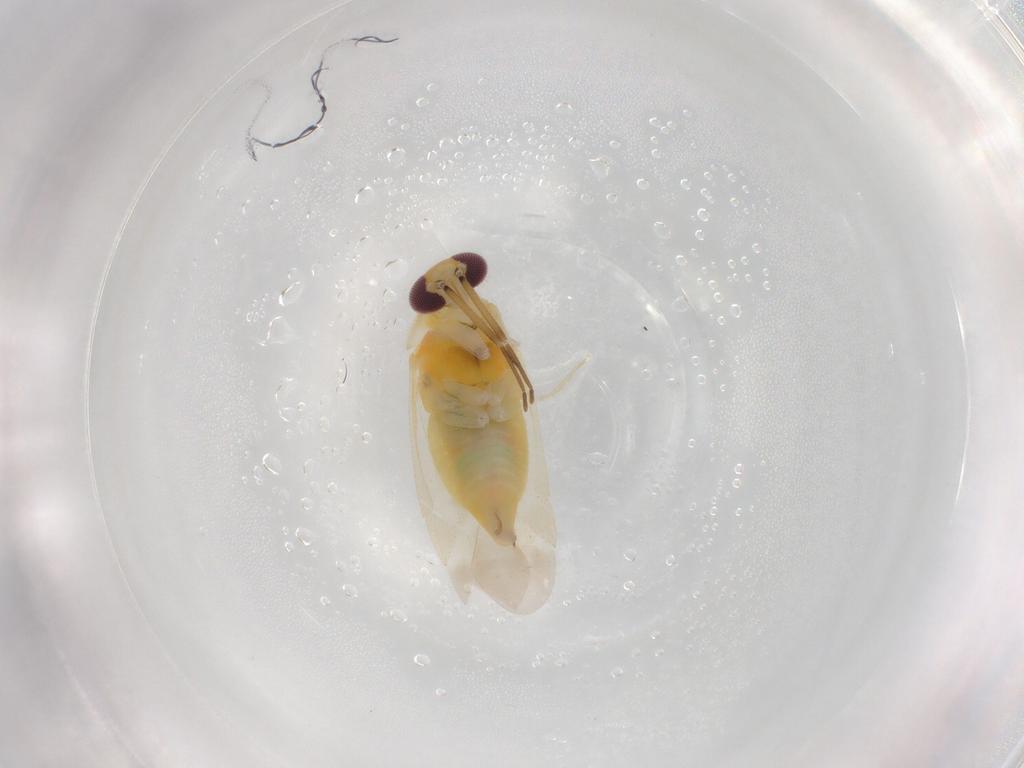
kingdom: Animalia
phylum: Arthropoda
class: Insecta
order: Hemiptera
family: Miridae
